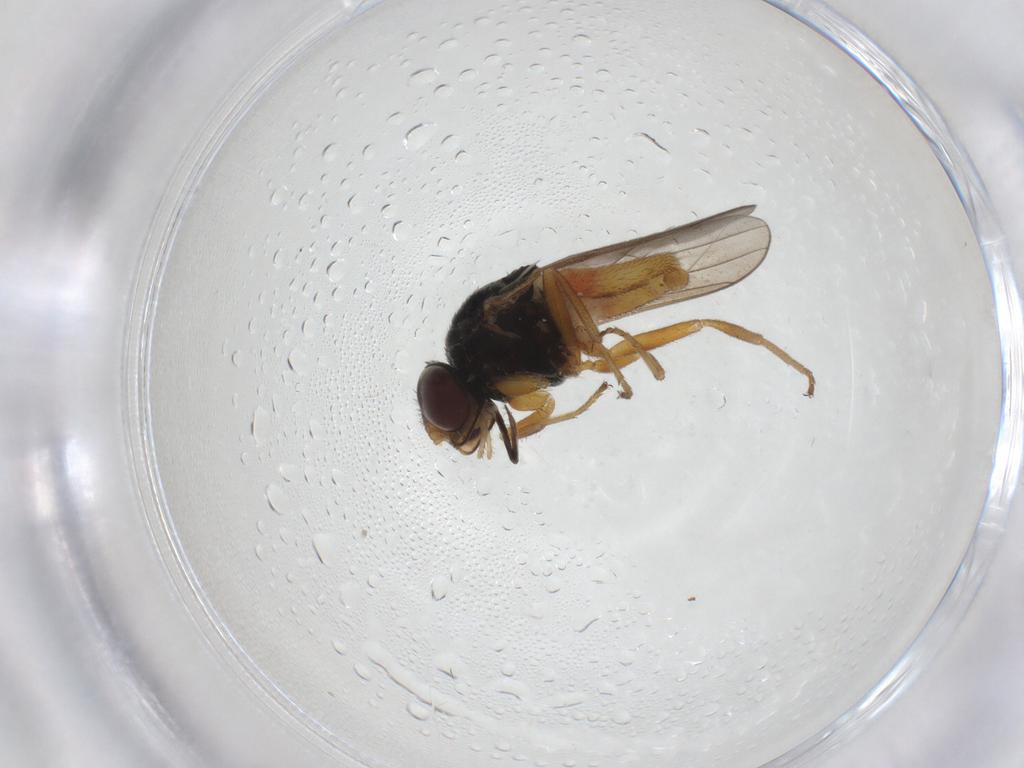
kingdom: Animalia
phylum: Arthropoda
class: Insecta
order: Diptera
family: Chloropidae
